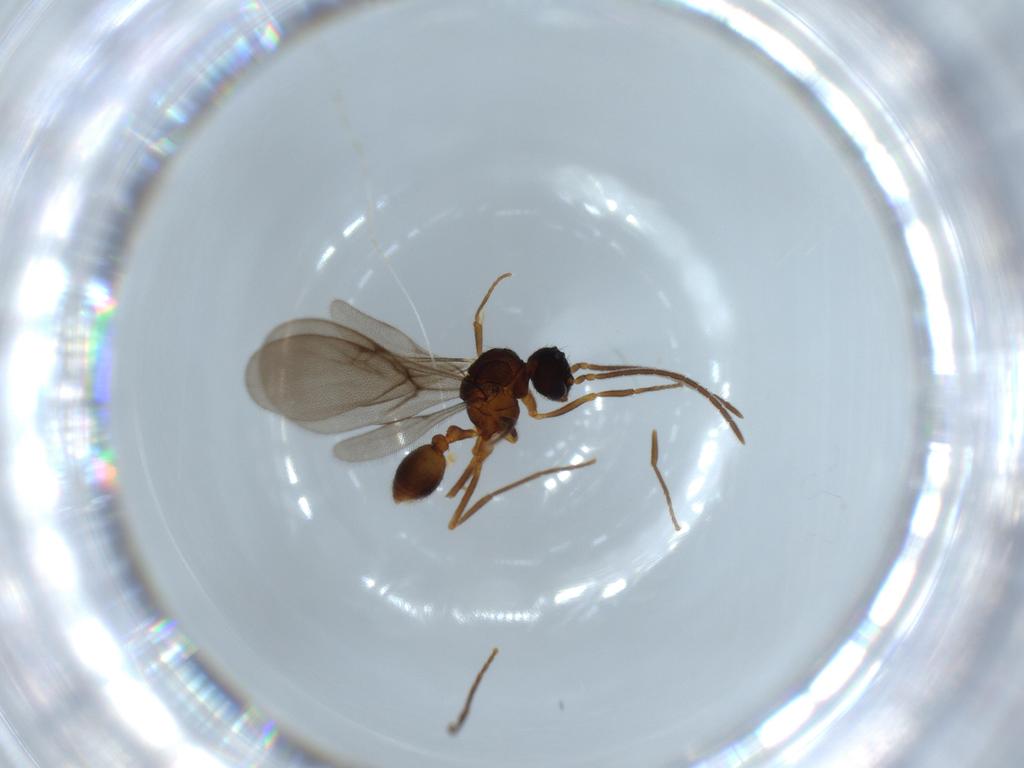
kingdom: Animalia
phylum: Arthropoda
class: Insecta
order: Hymenoptera
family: Formicidae
